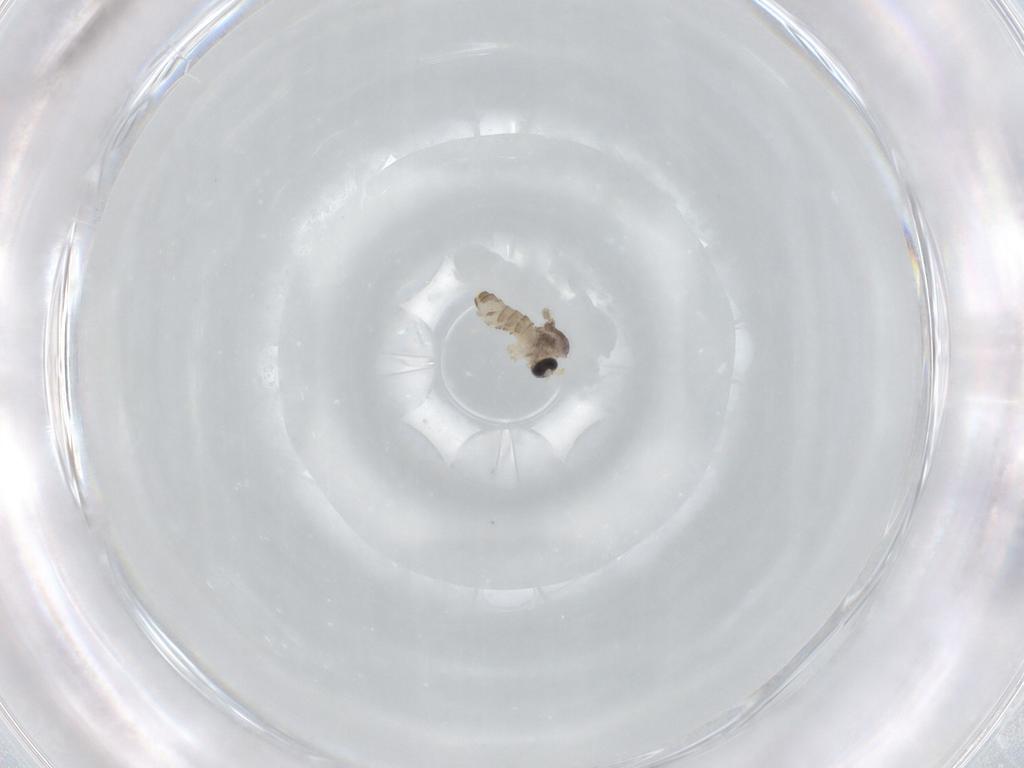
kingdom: Animalia
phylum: Arthropoda
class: Insecta
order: Diptera
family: Cecidomyiidae
